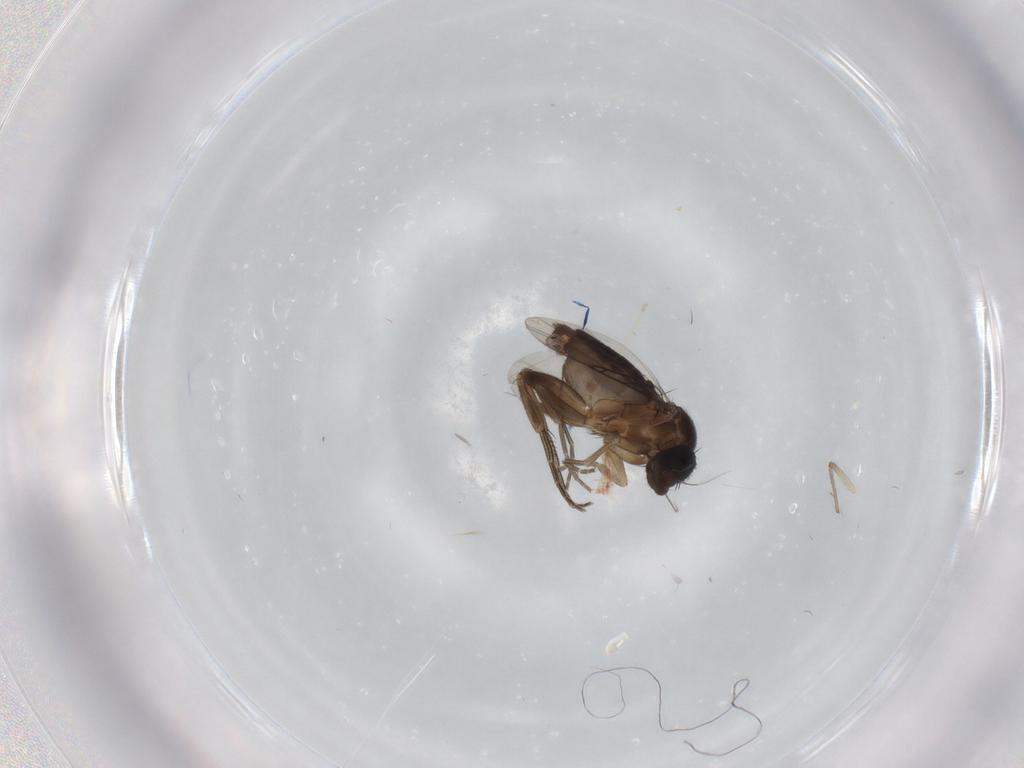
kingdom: Animalia
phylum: Arthropoda
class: Insecta
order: Diptera
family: Phoridae
